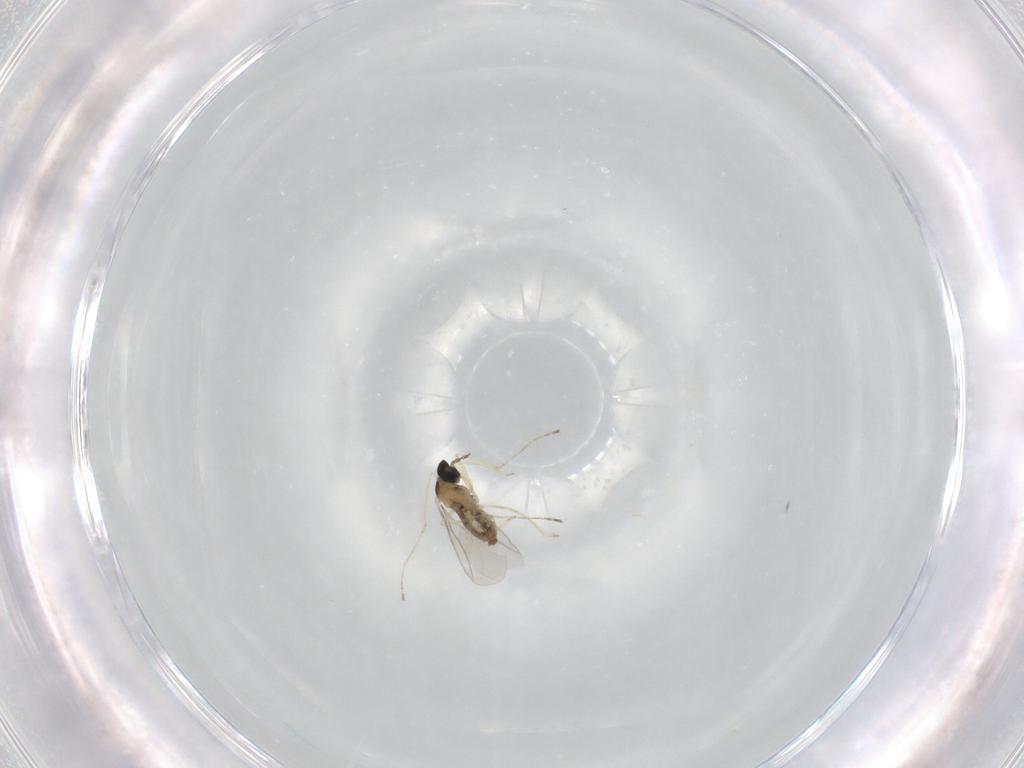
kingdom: Animalia
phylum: Arthropoda
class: Insecta
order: Diptera
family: Cecidomyiidae
